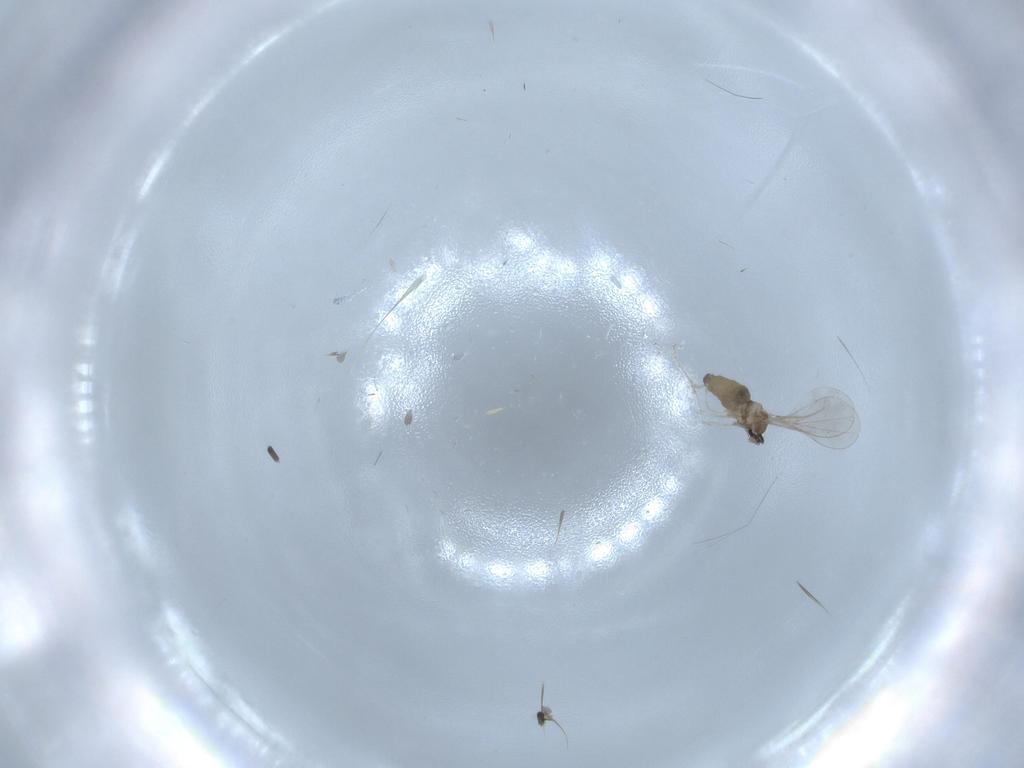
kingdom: Animalia
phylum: Arthropoda
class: Insecta
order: Diptera
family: Cecidomyiidae
